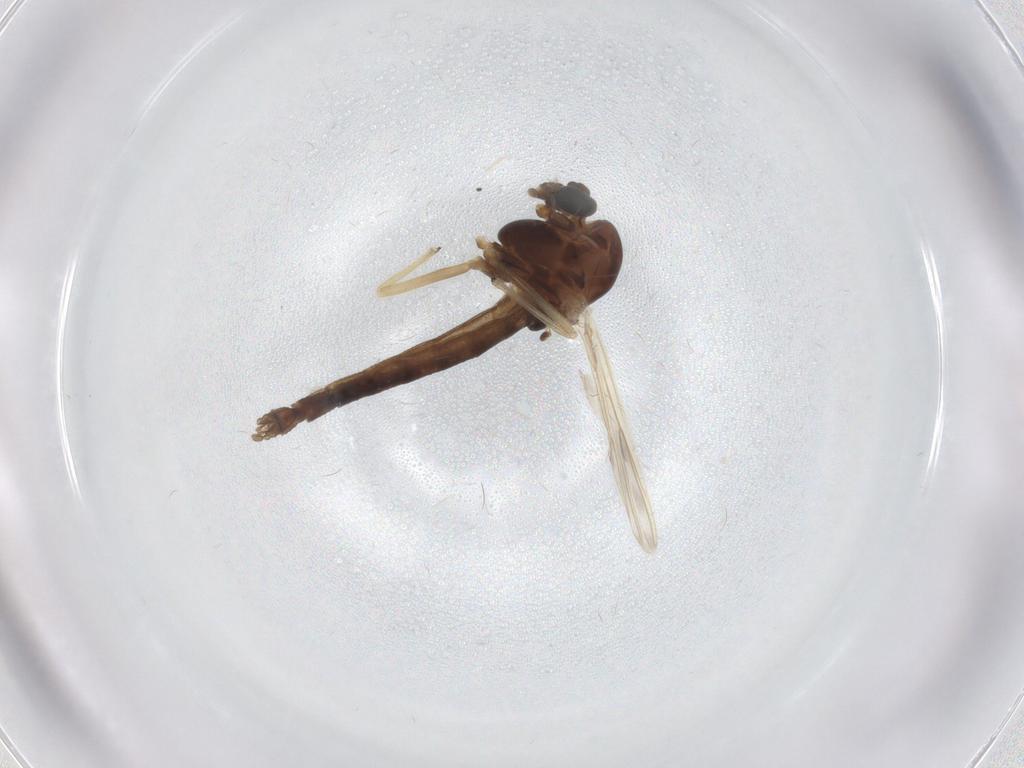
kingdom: Animalia
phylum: Arthropoda
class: Insecta
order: Diptera
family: Chironomidae
